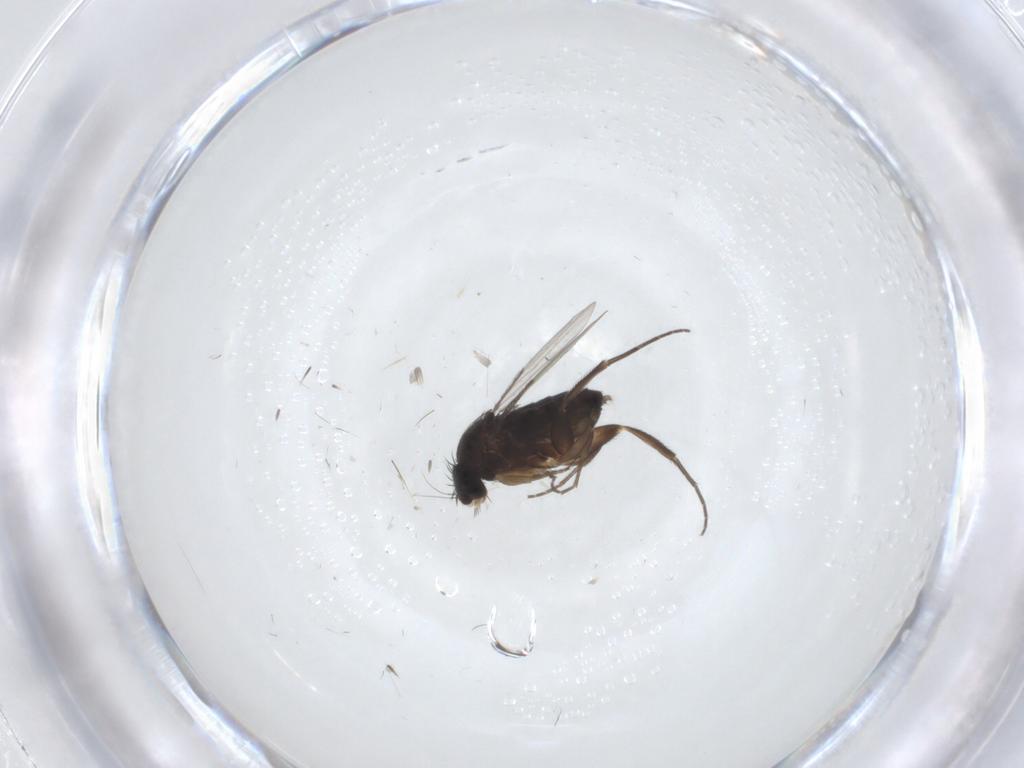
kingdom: Animalia
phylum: Arthropoda
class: Insecta
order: Diptera
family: Phoridae
